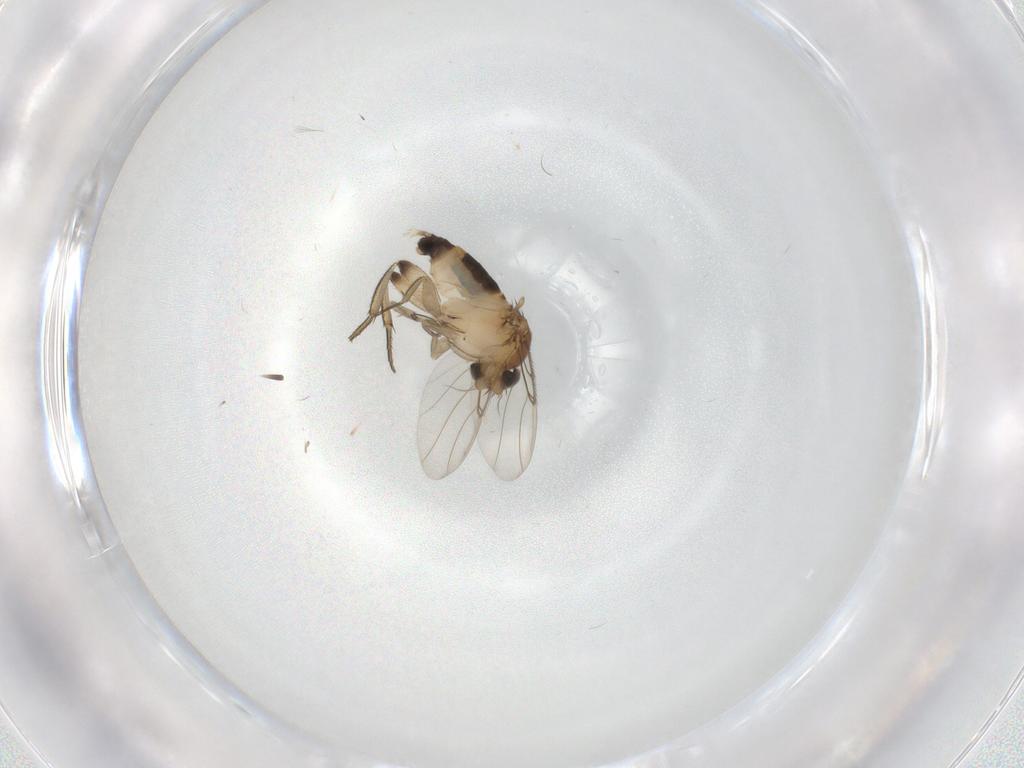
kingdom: Animalia
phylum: Arthropoda
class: Insecta
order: Diptera
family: Phoridae
